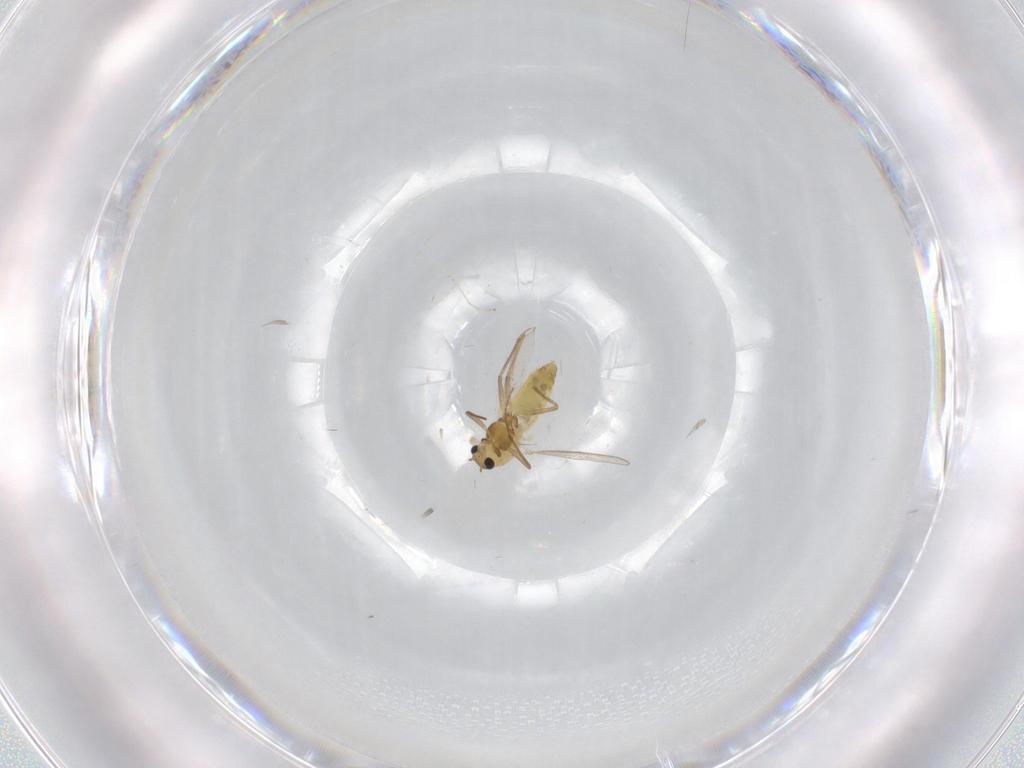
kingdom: Animalia
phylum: Arthropoda
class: Insecta
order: Diptera
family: Chironomidae
